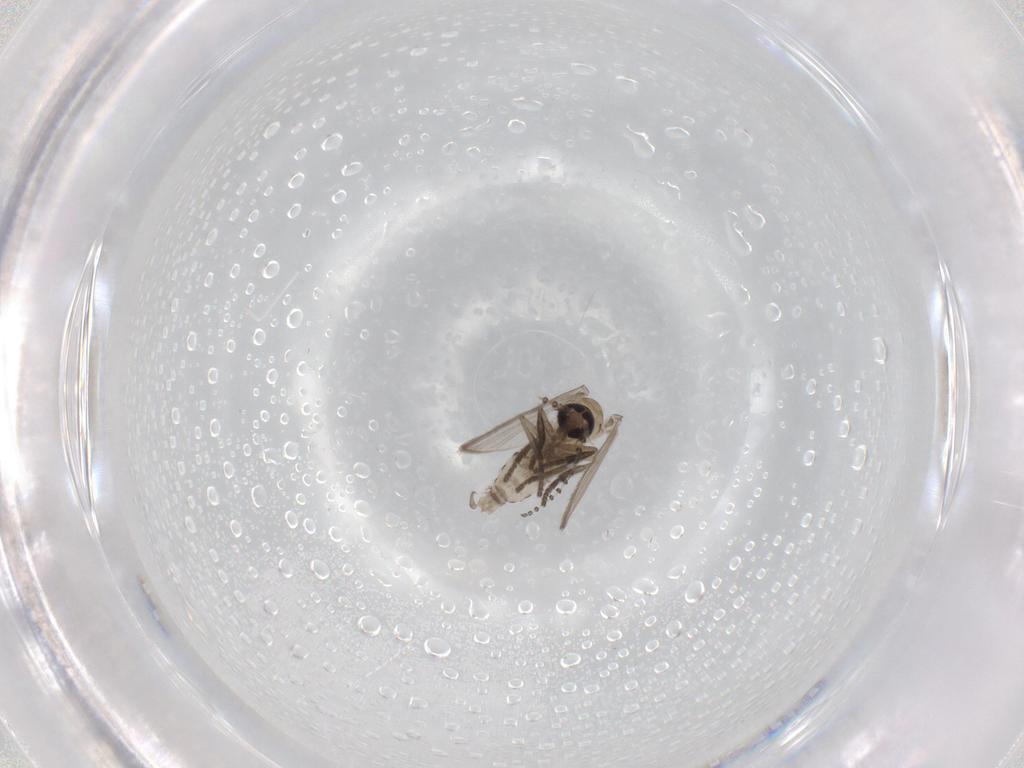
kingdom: Animalia
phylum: Arthropoda
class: Insecta
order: Diptera
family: Psychodidae
